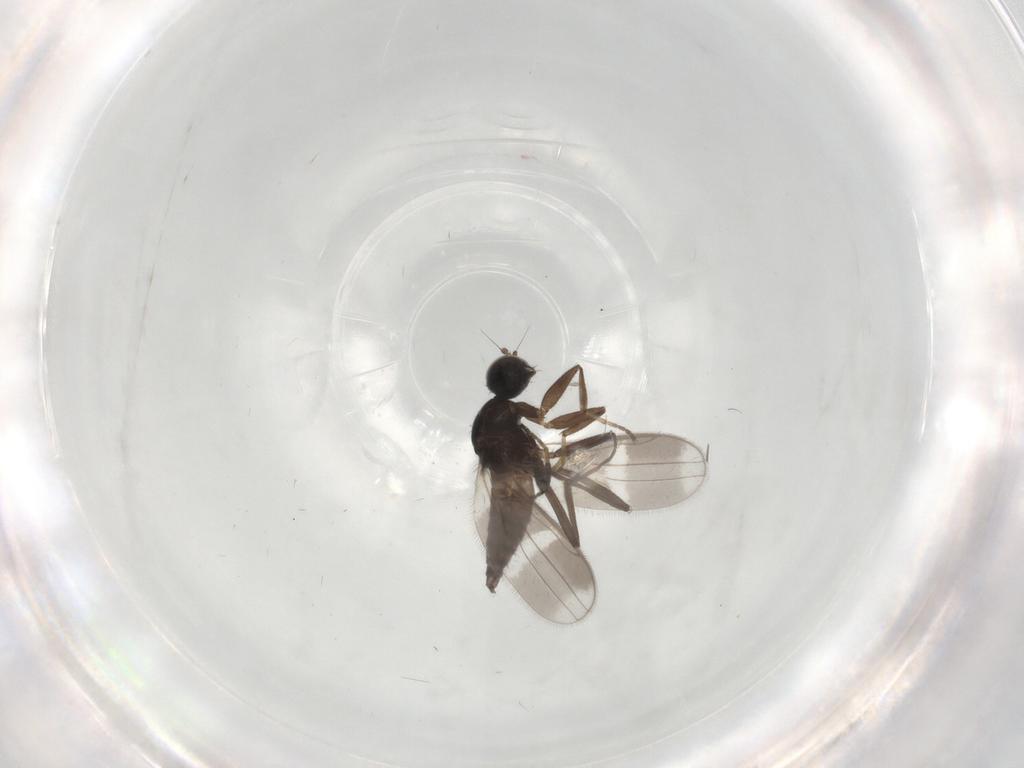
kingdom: Animalia
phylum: Arthropoda
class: Insecta
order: Diptera
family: Hybotidae
